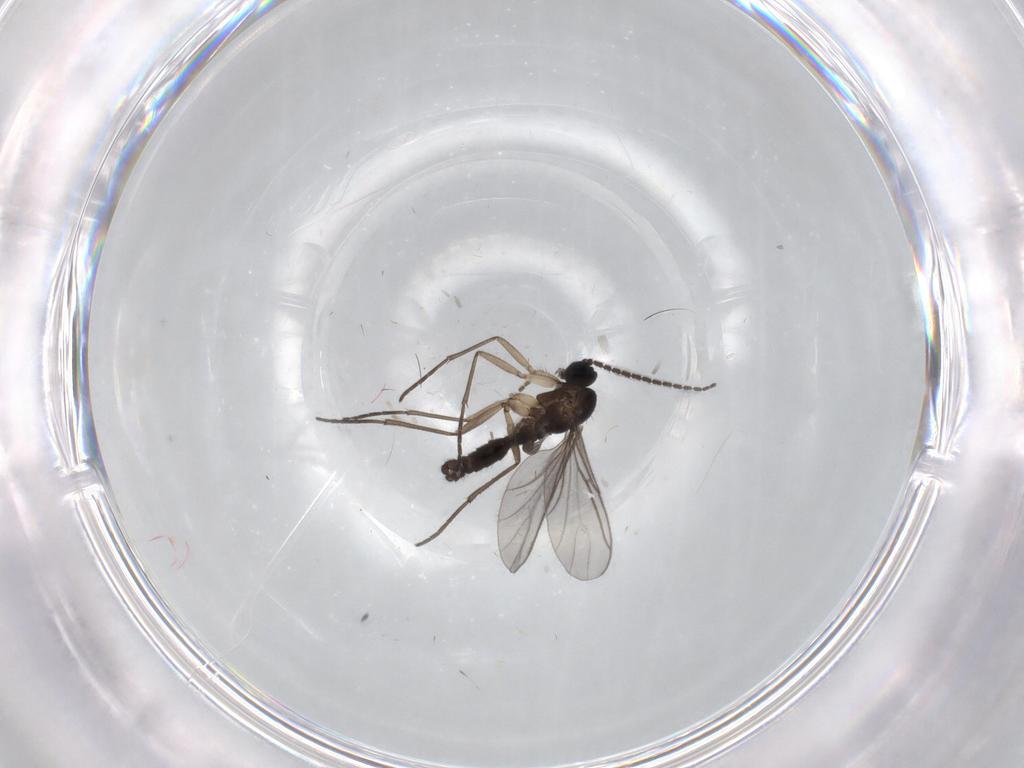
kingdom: Animalia
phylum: Arthropoda
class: Insecta
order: Diptera
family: Sciaridae
